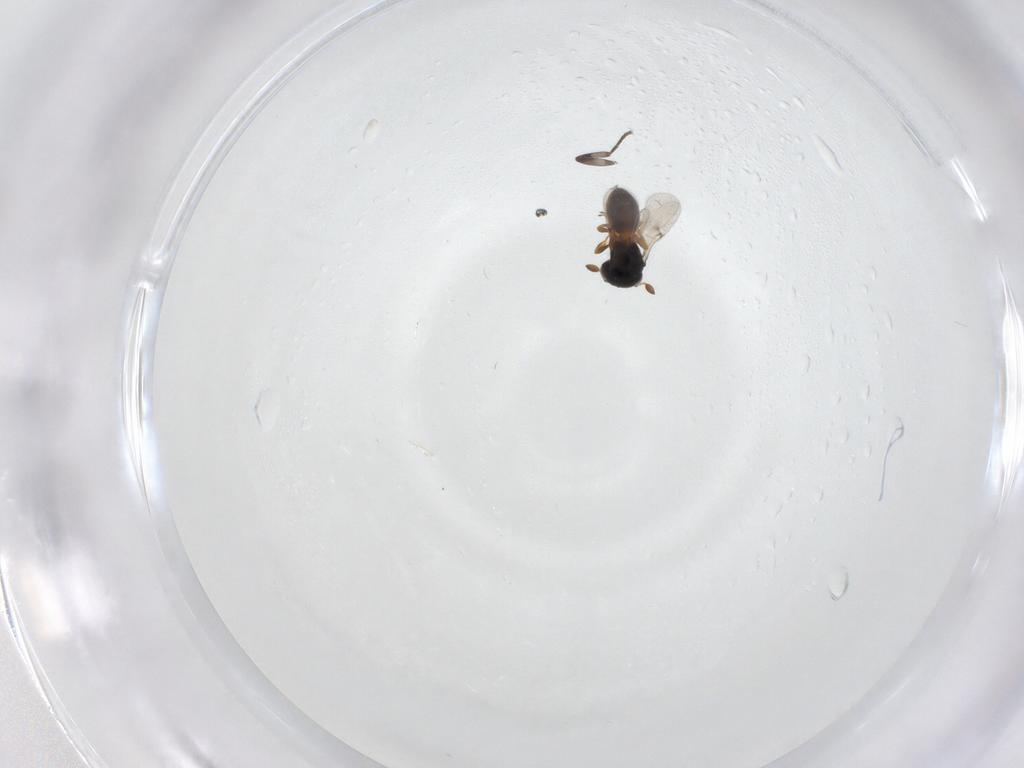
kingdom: Animalia
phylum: Arthropoda
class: Insecta
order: Hymenoptera
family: Scelionidae
